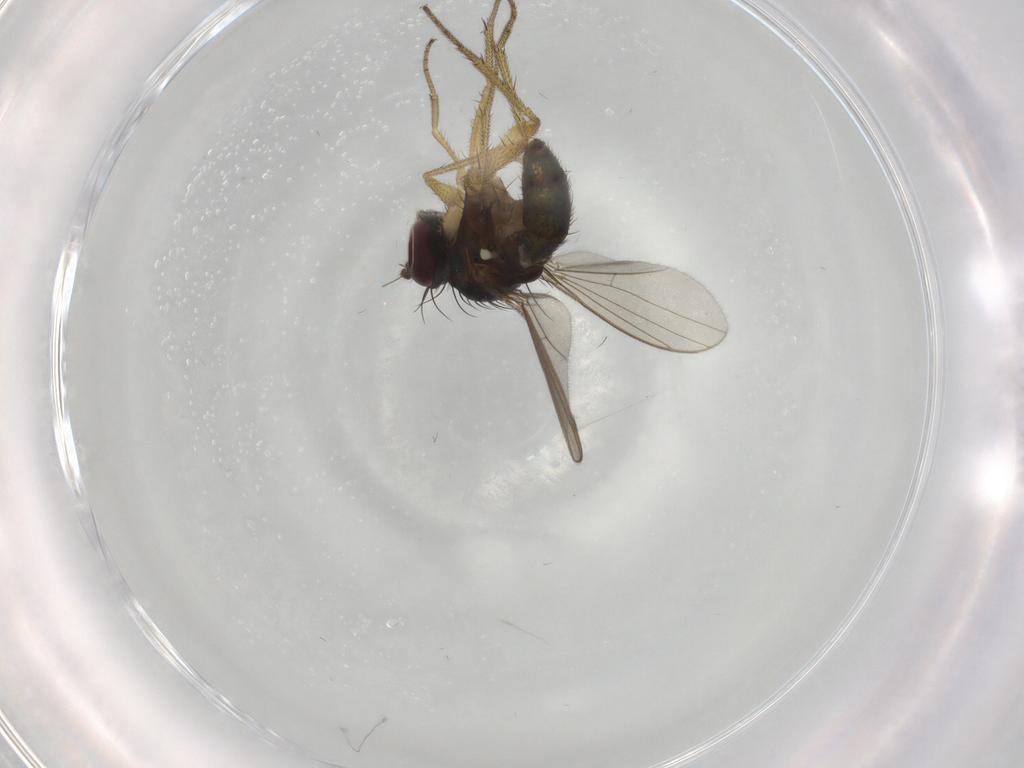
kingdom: Animalia
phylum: Arthropoda
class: Insecta
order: Diptera
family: Dolichopodidae
